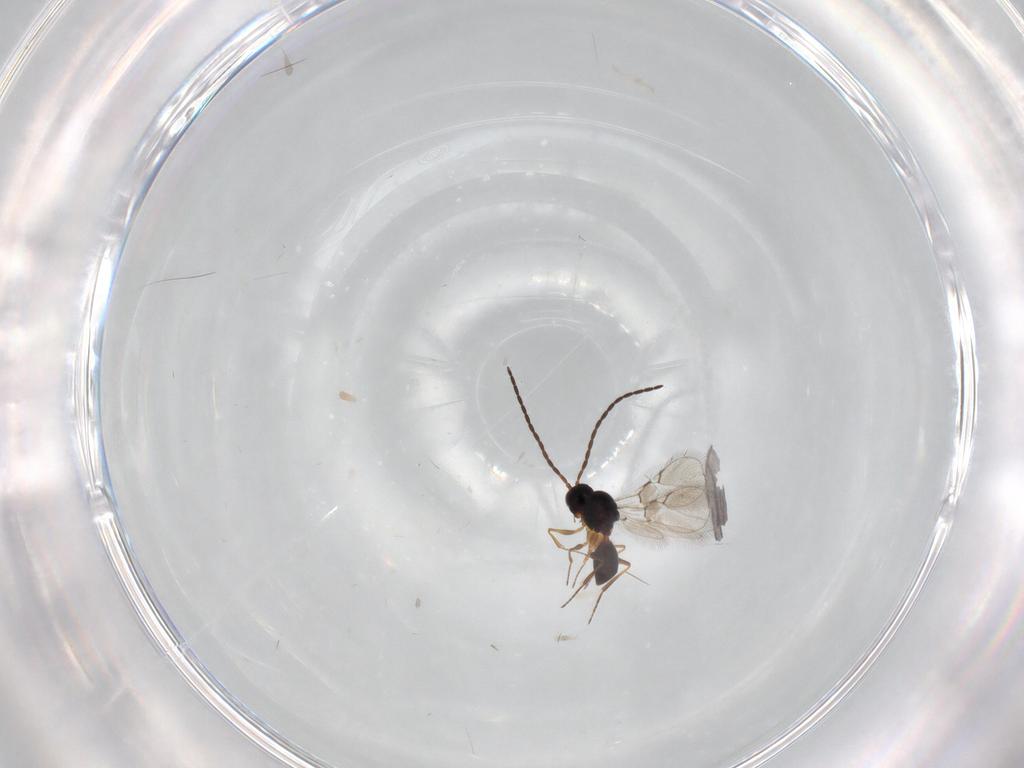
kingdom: Animalia
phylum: Arthropoda
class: Insecta
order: Hymenoptera
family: Figitidae
